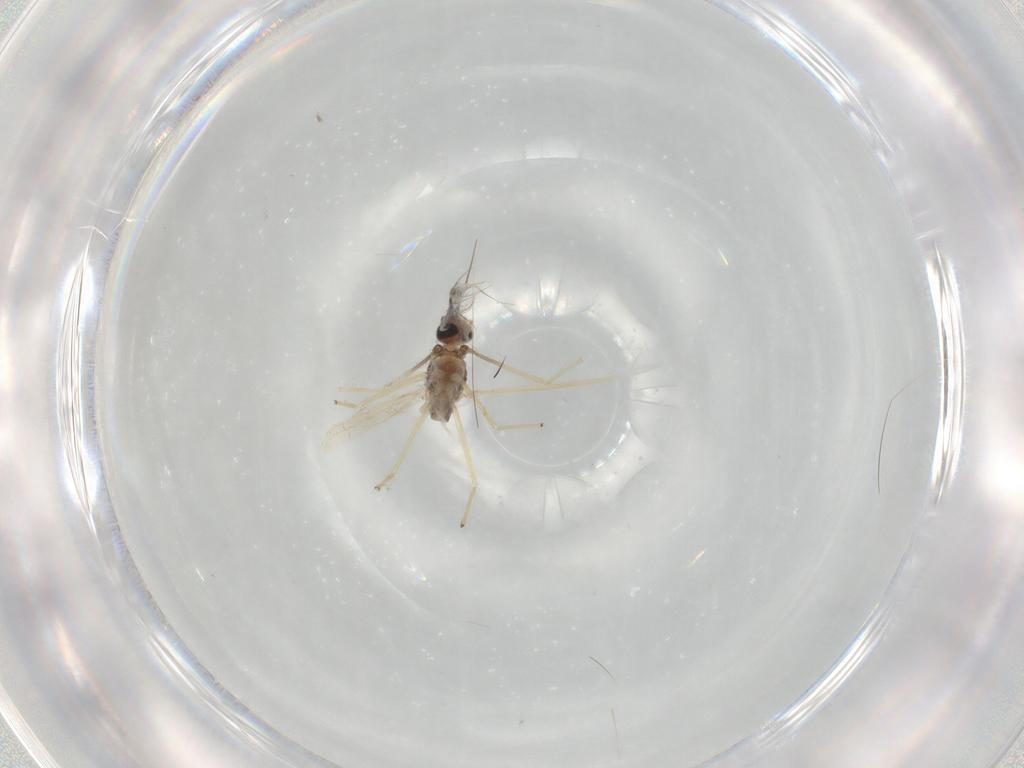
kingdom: Animalia
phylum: Arthropoda
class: Insecta
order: Diptera
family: Chironomidae
